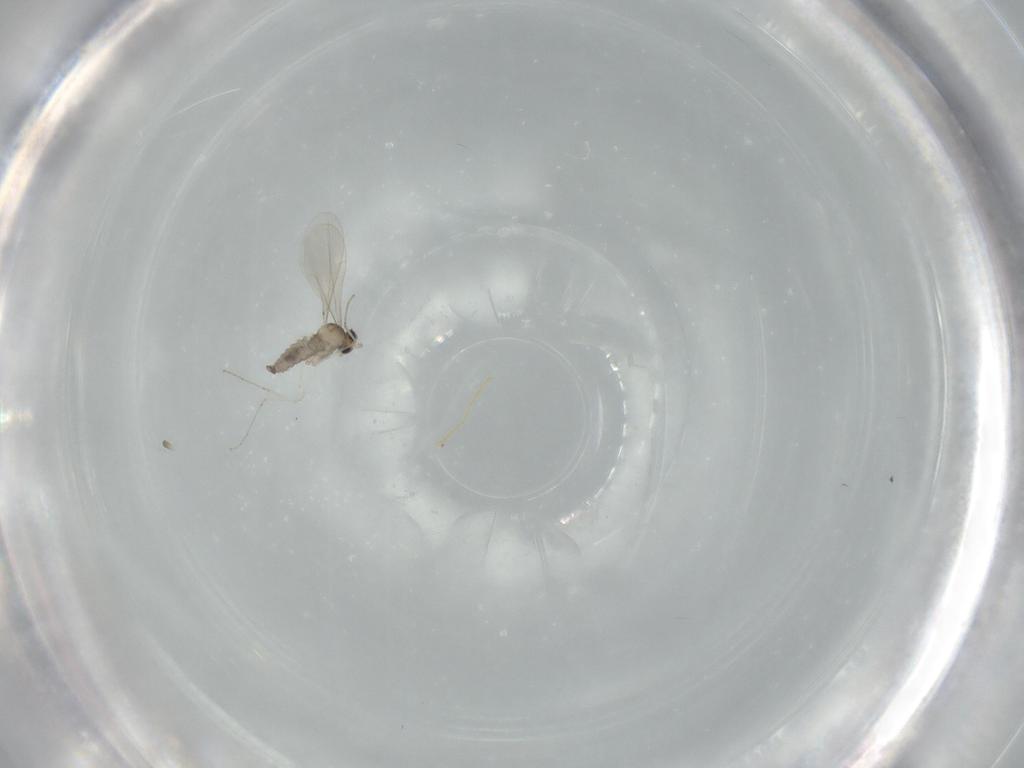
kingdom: Animalia
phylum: Arthropoda
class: Insecta
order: Diptera
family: Cecidomyiidae
